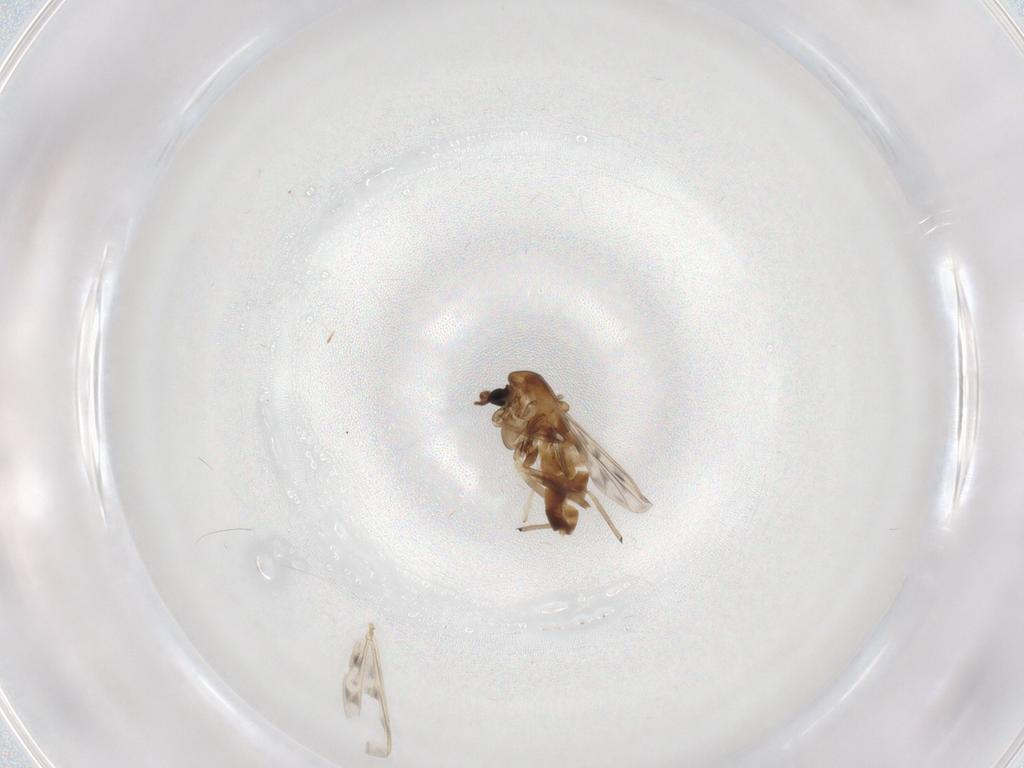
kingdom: Animalia
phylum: Arthropoda
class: Insecta
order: Diptera
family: Chironomidae
